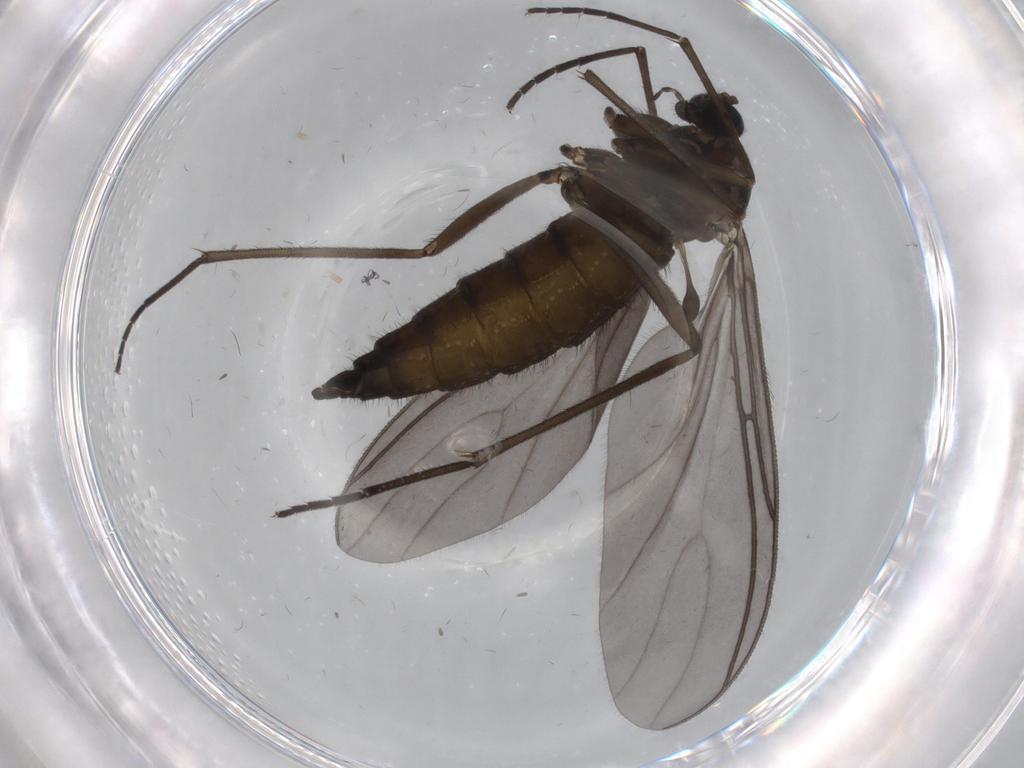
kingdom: Animalia
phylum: Arthropoda
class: Insecta
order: Diptera
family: Sciaridae
